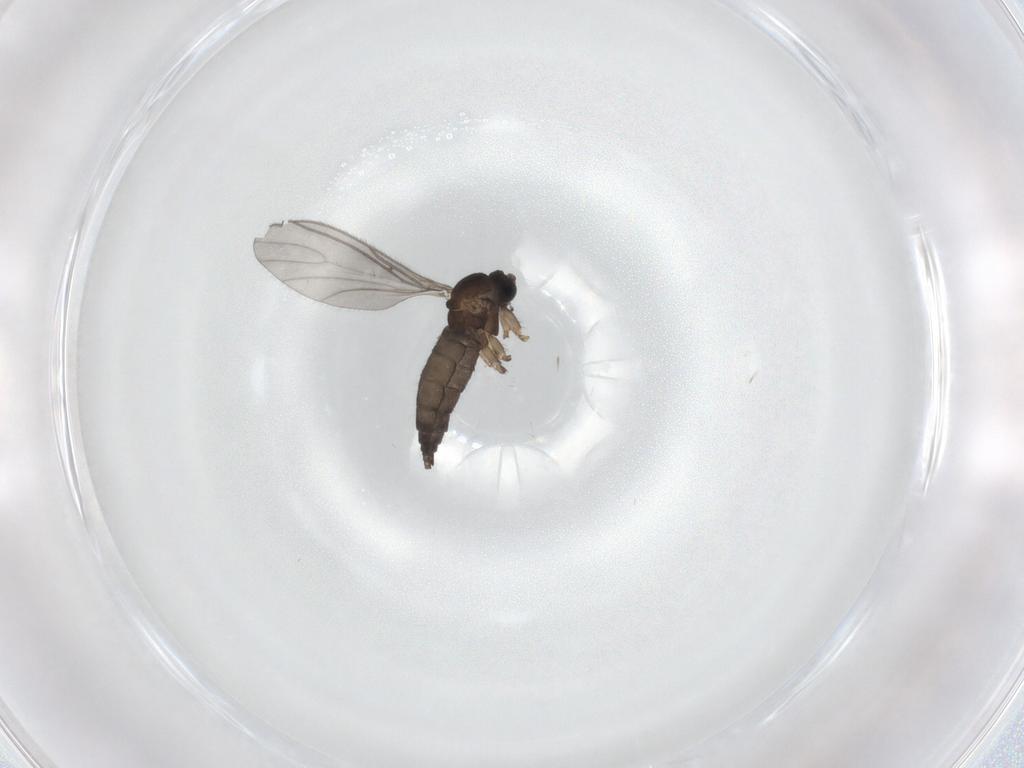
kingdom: Animalia
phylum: Arthropoda
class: Insecta
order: Diptera
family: Sciaridae
